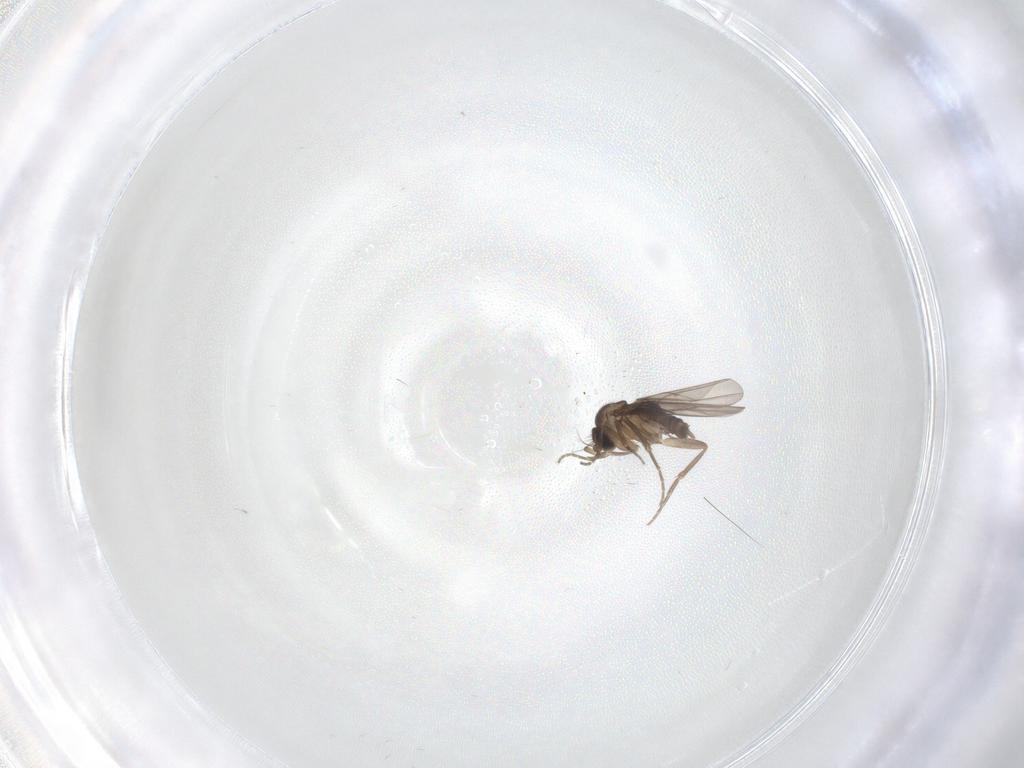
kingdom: Animalia
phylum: Arthropoda
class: Insecta
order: Diptera
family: Phoridae
